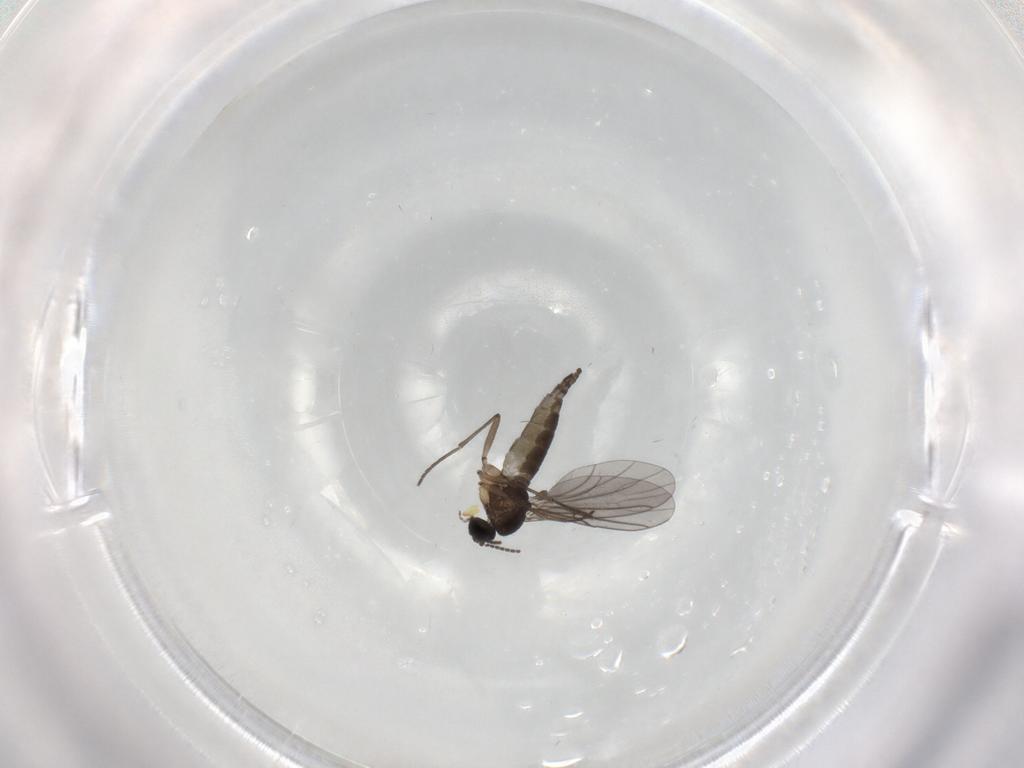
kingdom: Animalia
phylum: Arthropoda
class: Insecta
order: Diptera
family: Sciaridae
